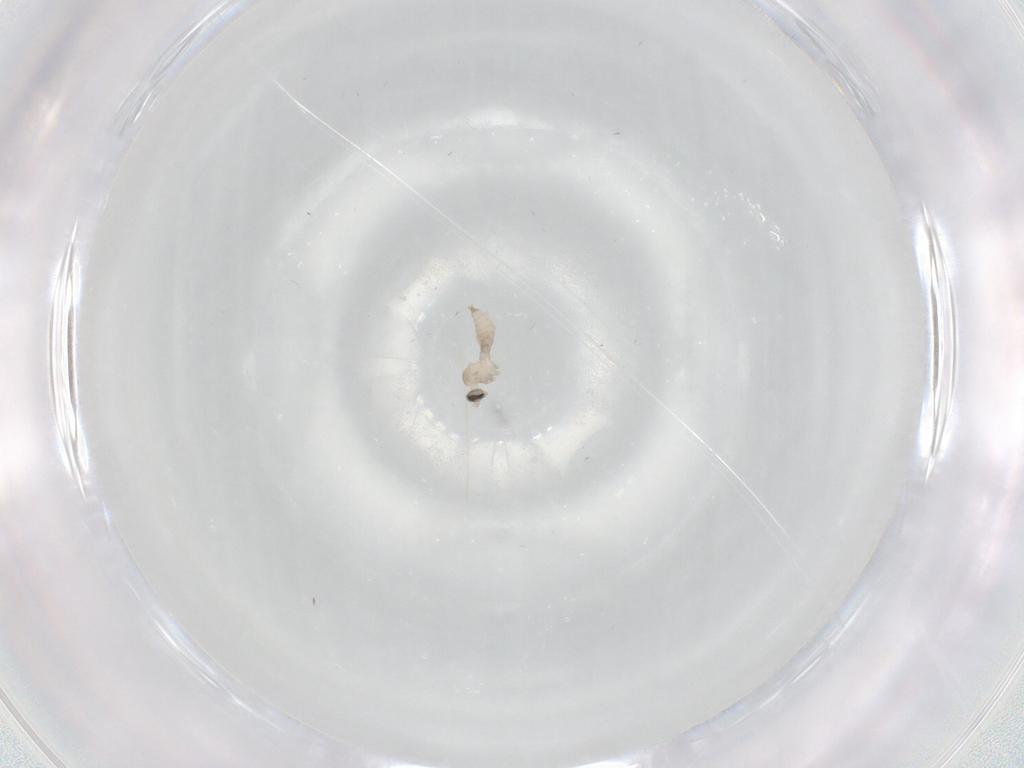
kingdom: Animalia
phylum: Arthropoda
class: Insecta
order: Diptera
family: Cecidomyiidae
